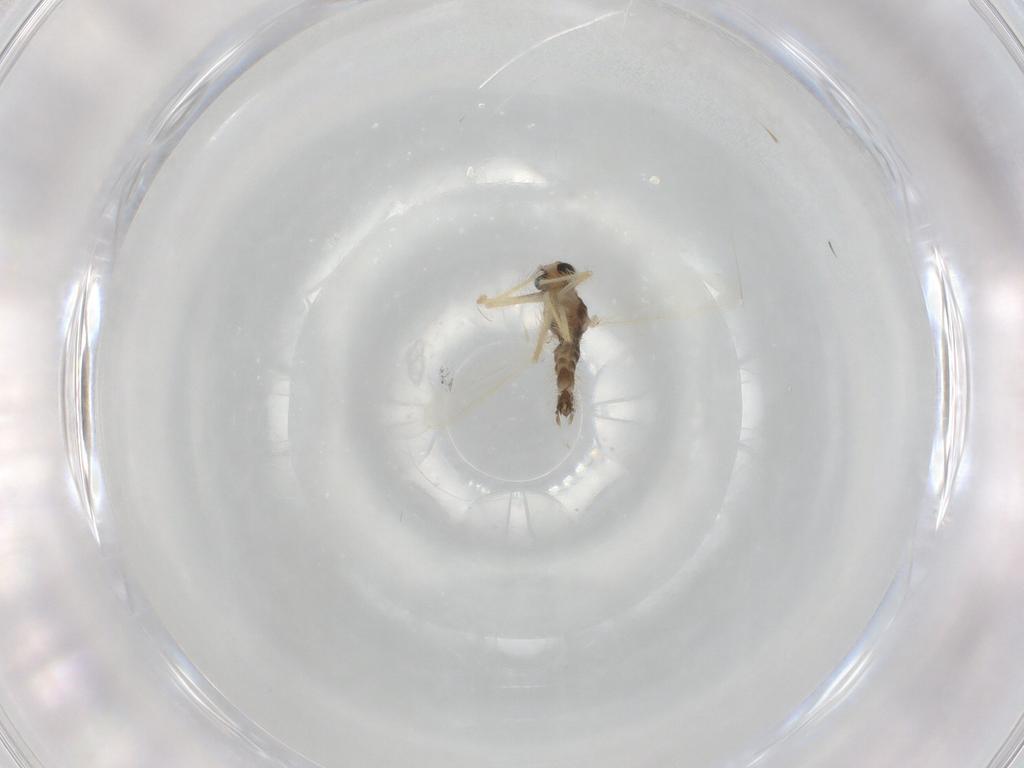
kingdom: Animalia
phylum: Arthropoda
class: Insecta
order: Diptera
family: Chironomidae
